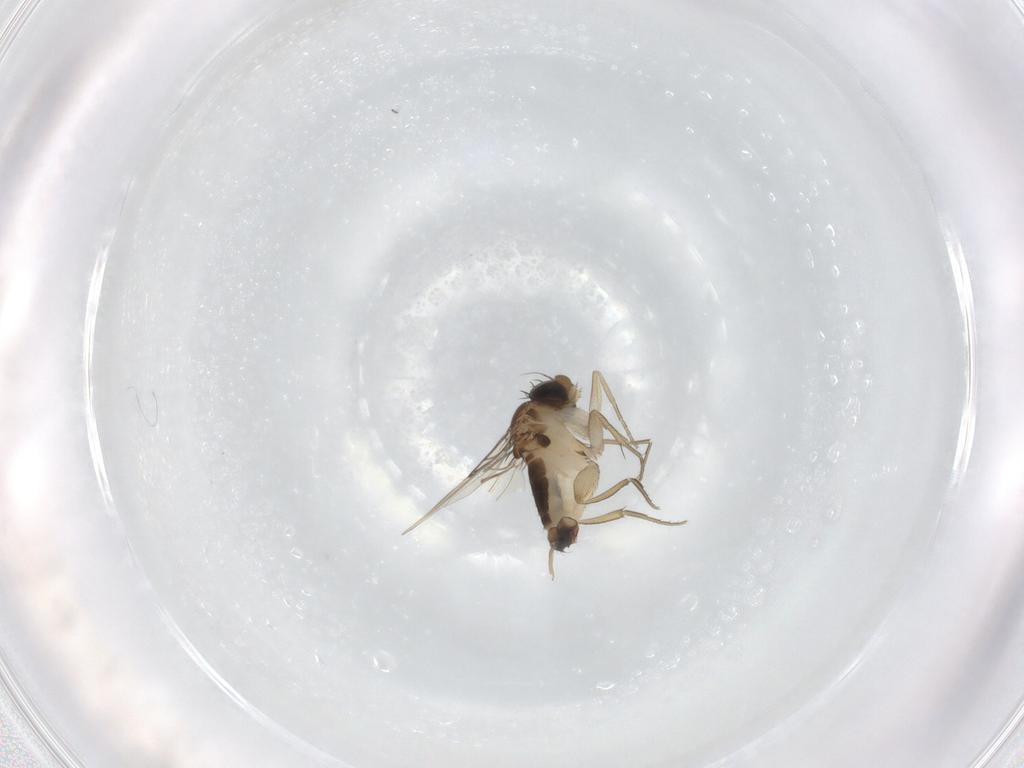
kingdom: Animalia
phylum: Arthropoda
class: Insecta
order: Diptera
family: Phoridae
